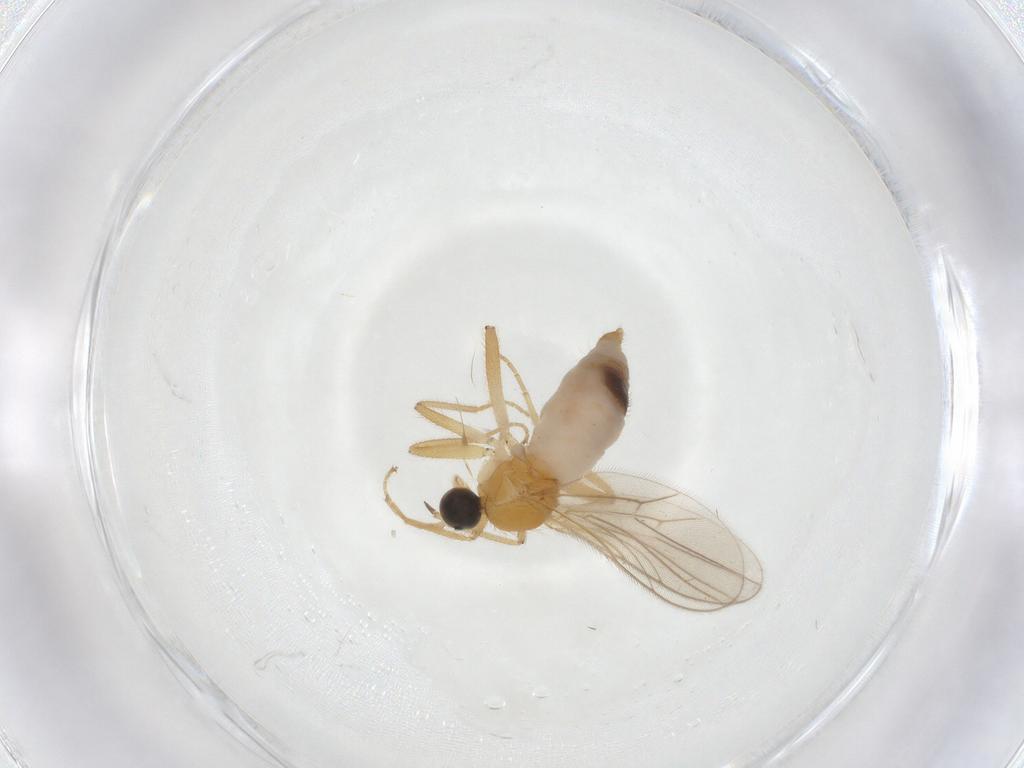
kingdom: Animalia
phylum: Arthropoda
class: Insecta
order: Diptera
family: Hybotidae
